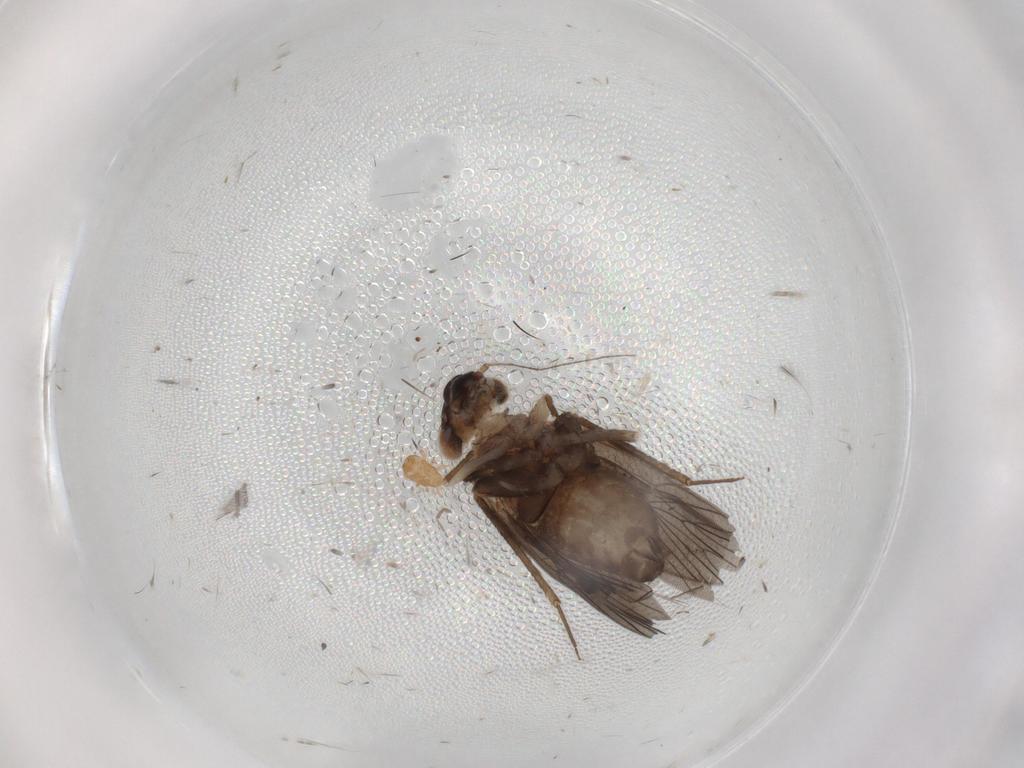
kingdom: Animalia
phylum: Arthropoda
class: Insecta
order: Psocodea
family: Lepidopsocidae
